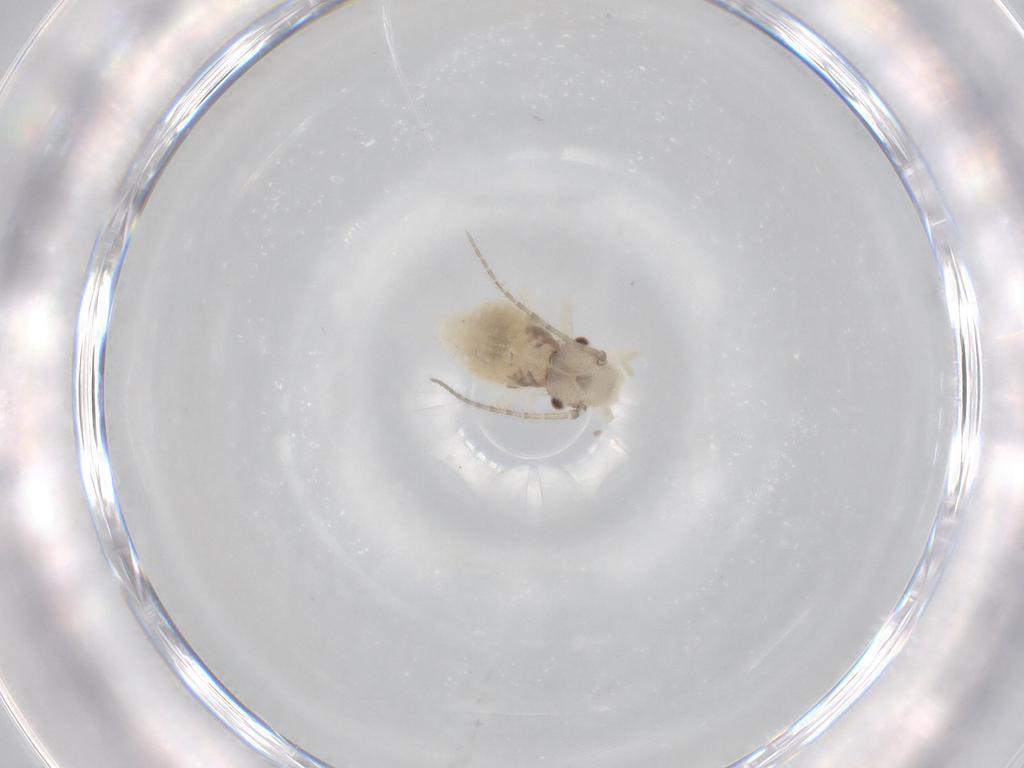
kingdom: Animalia
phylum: Arthropoda
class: Insecta
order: Psocodea
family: Amphipsocidae
